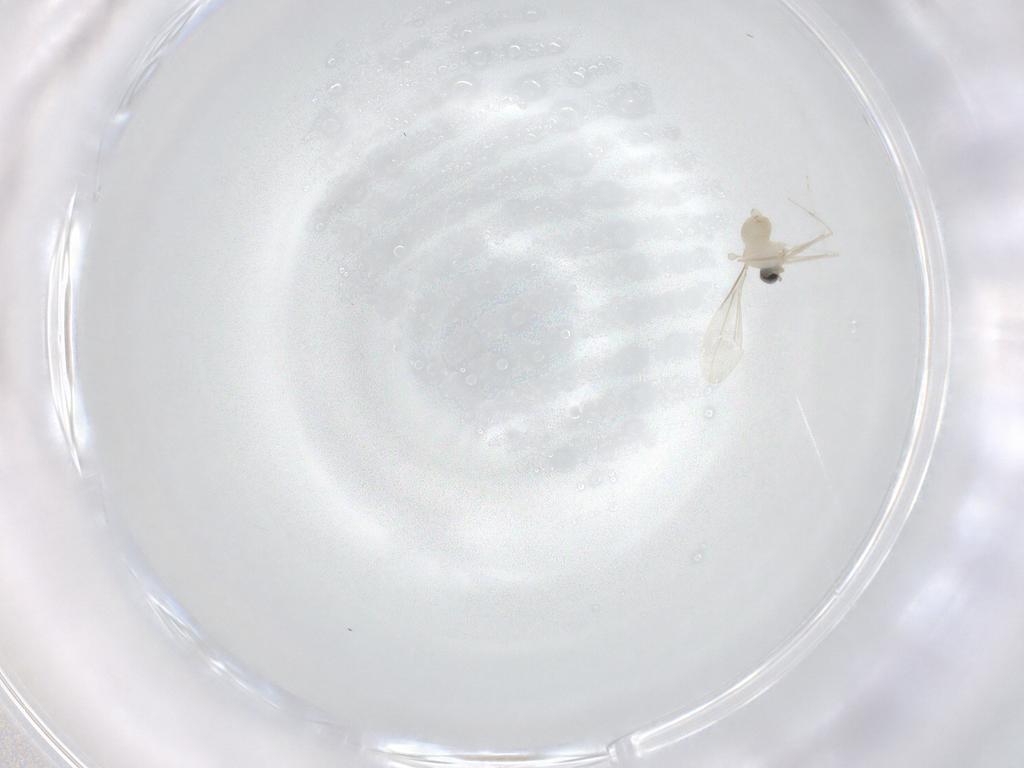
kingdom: Animalia
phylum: Arthropoda
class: Insecta
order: Diptera
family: Cecidomyiidae
